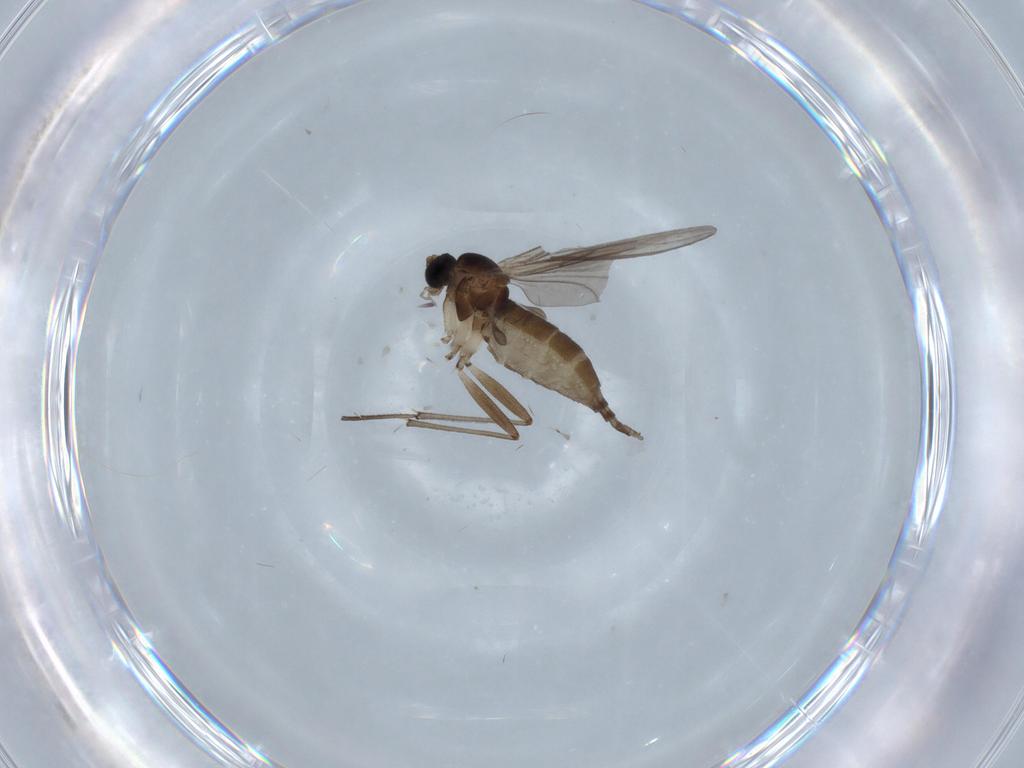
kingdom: Animalia
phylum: Arthropoda
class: Insecta
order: Diptera
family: Sciaridae
